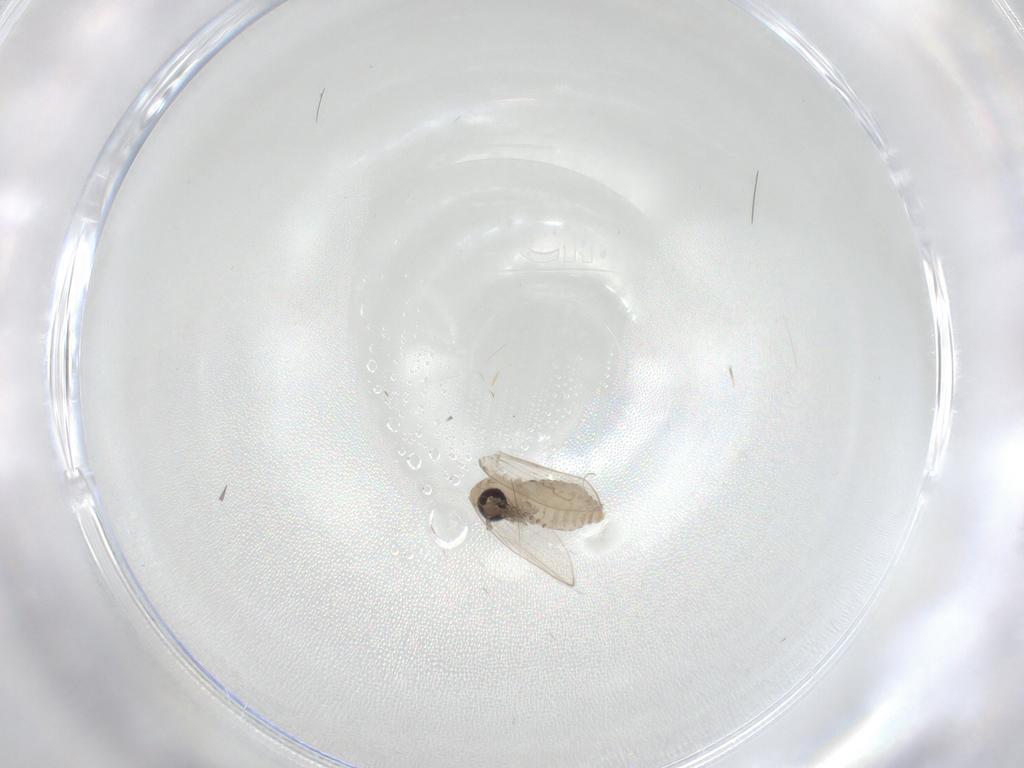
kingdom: Animalia
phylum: Arthropoda
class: Insecta
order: Diptera
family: Psychodidae
